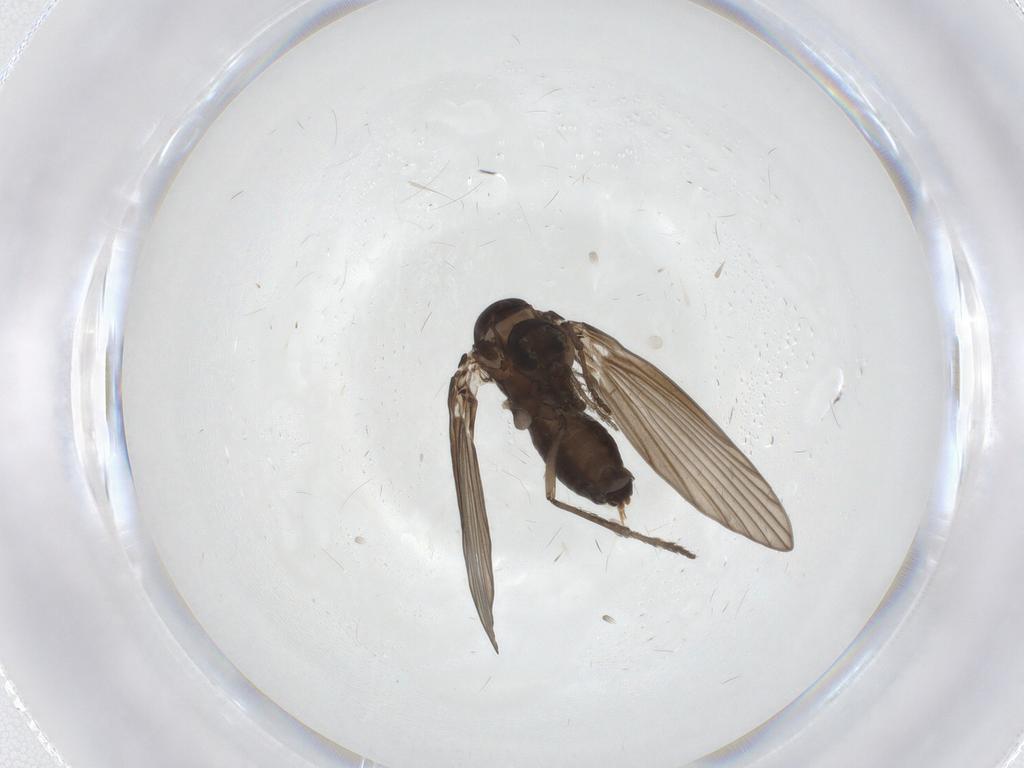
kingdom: Animalia
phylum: Arthropoda
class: Insecta
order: Diptera
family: Psychodidae
